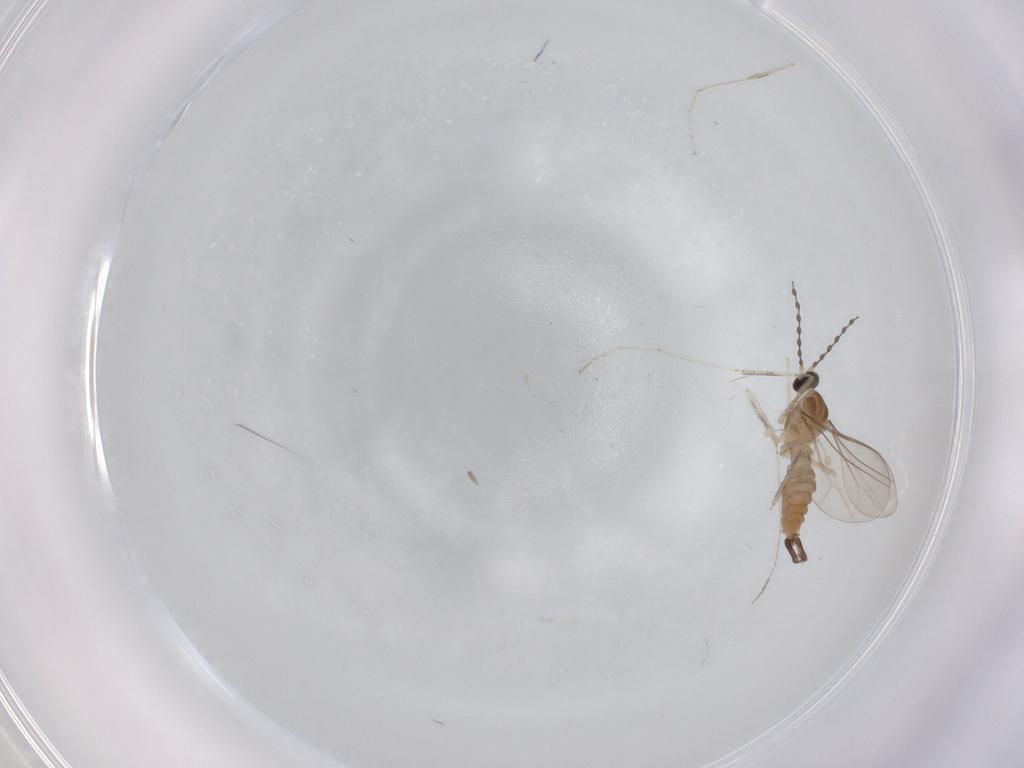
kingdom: Animalia
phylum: Arthropoda
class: Insecta
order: Diptera
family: Cecidomyiidae
